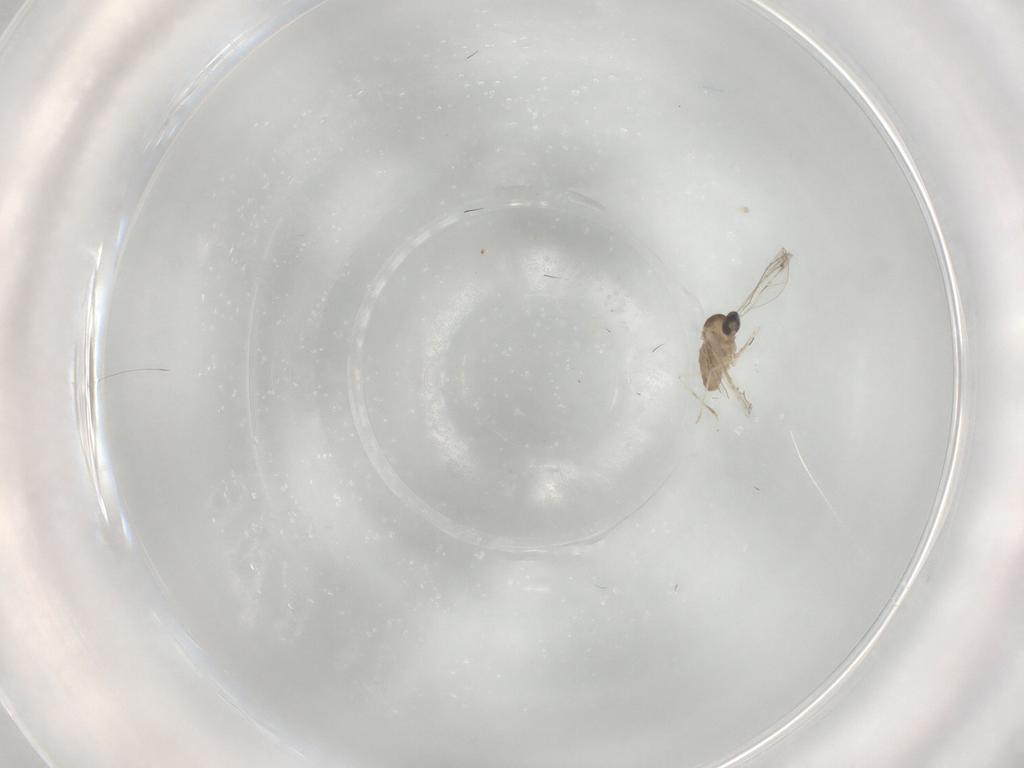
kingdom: Animalia
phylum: Arthropoda
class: Insecta
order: Diptera
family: Cecidomyiidae
